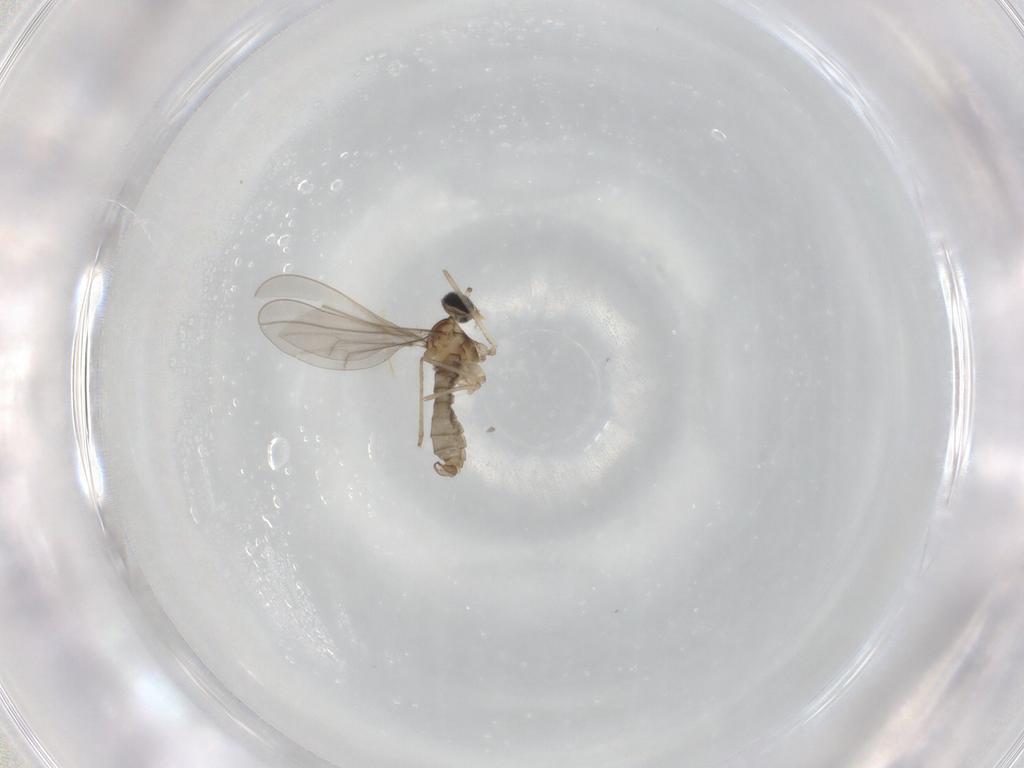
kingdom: Animalia
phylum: Arthropoda
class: Insecta
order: Diptera
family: Cecidomyiidae
